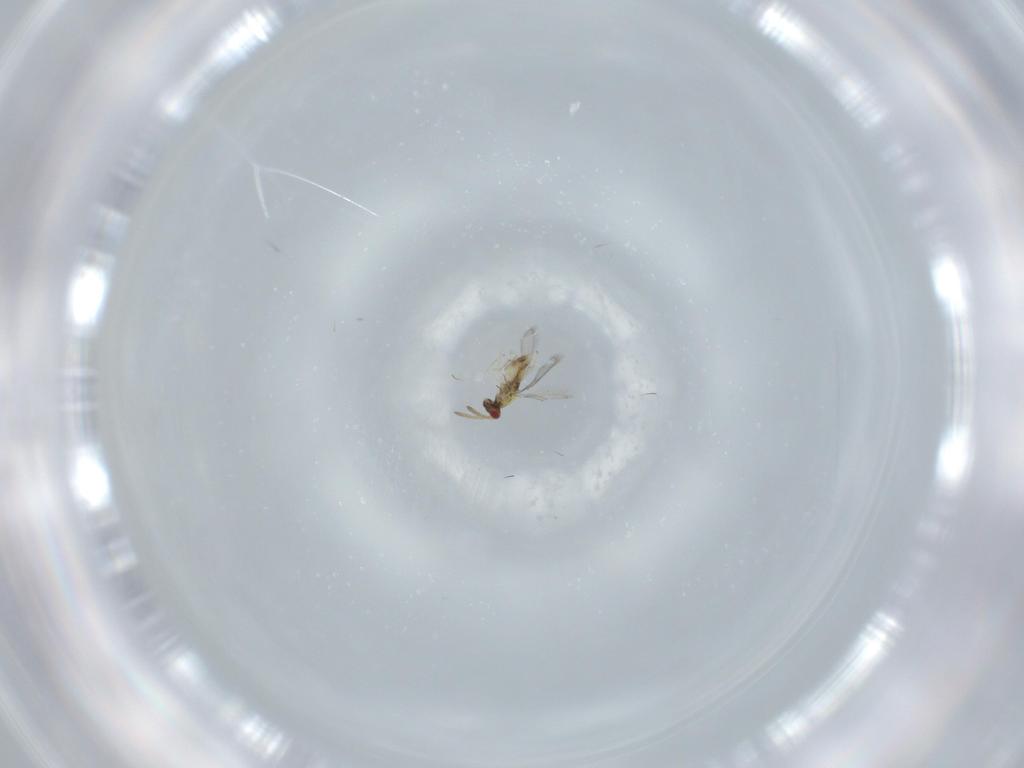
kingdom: Animalia
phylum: Arthropoda
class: Insecta
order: Hymenoptera
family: Aphelinidae
